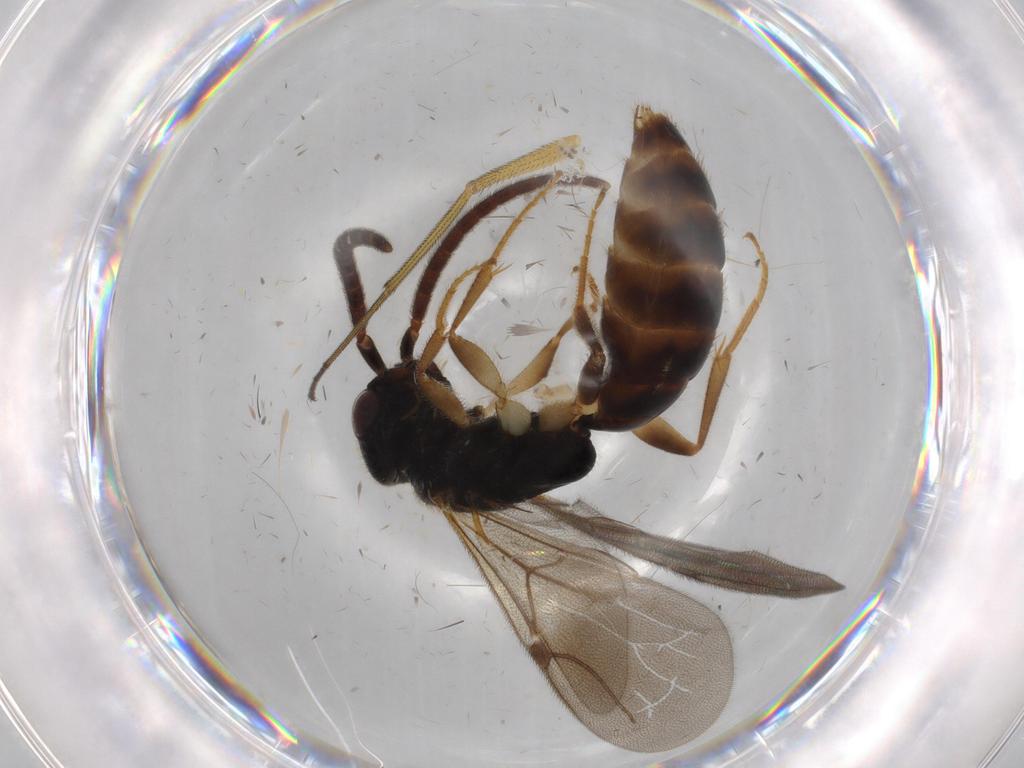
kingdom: Animalia
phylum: Arthropoda
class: Insecta
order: Hymenoptera
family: Bethylidae
